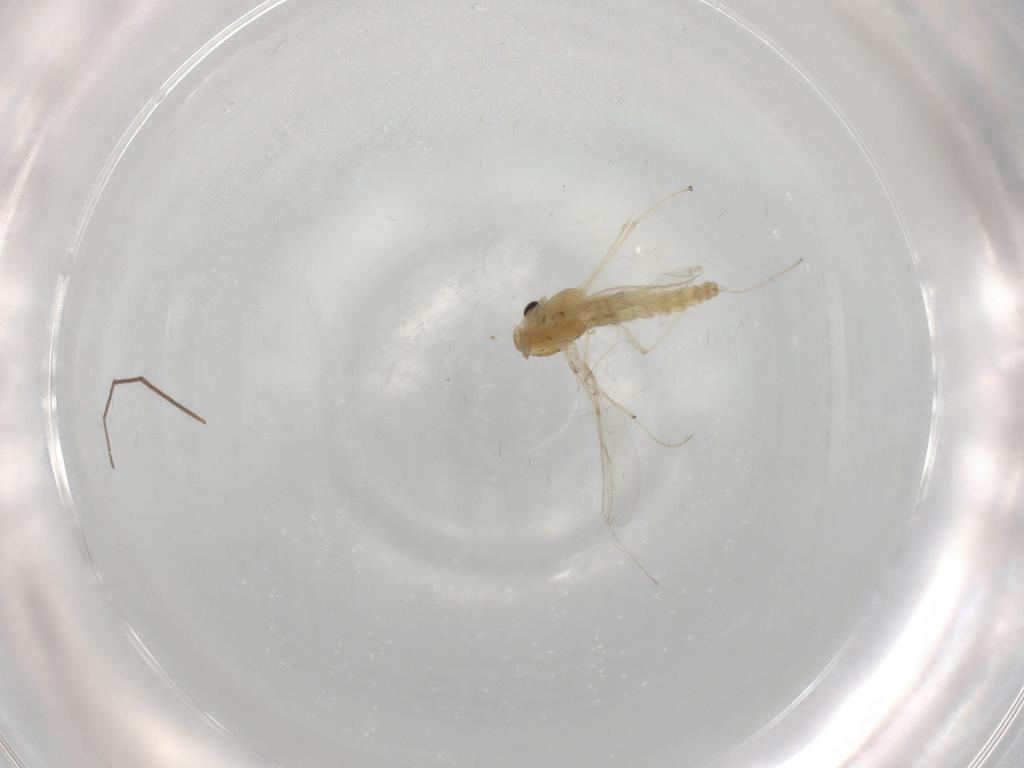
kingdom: Animalia
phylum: Arthropoda
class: Insecta
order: Diptera
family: Chironomidae
